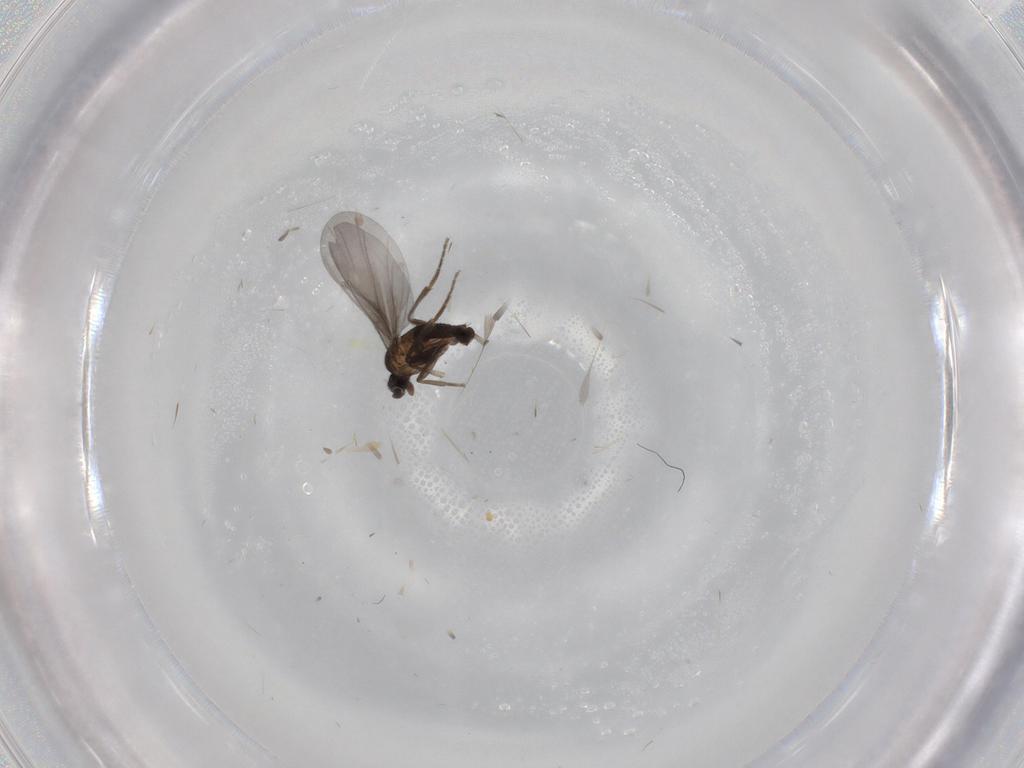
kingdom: Animalia
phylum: Arthropoda
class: Insecta
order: Diptera
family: Phoridae
